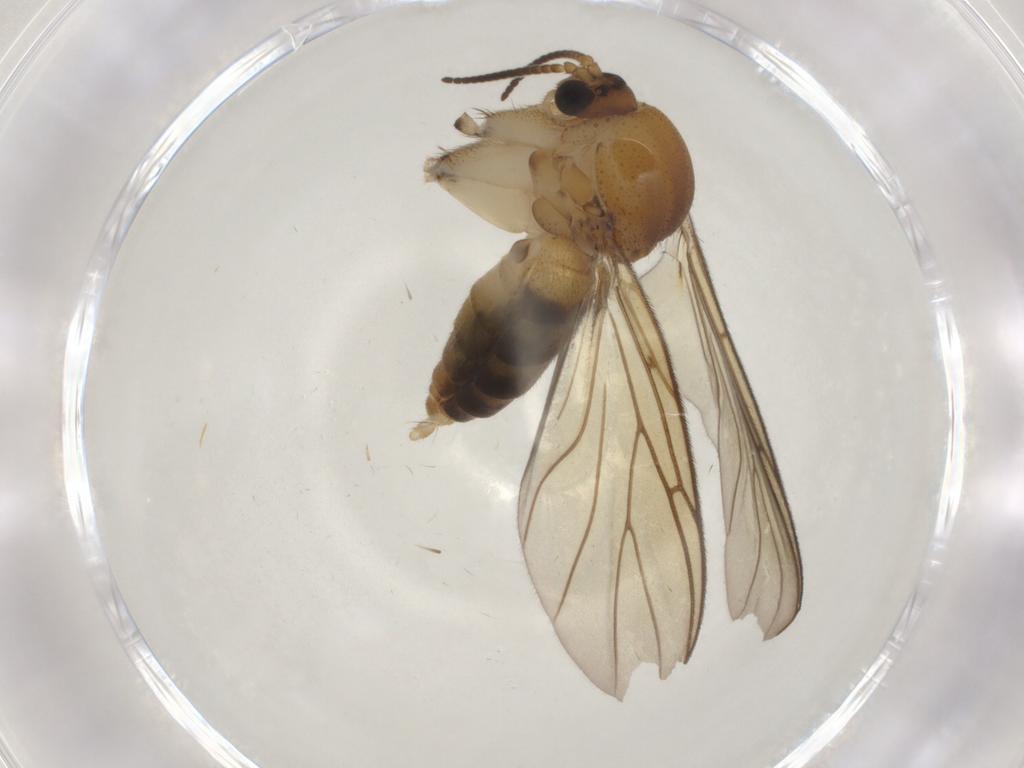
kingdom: Animalia
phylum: Arthropoda
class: Insecta
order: Diptera
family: Mycetophilidae
